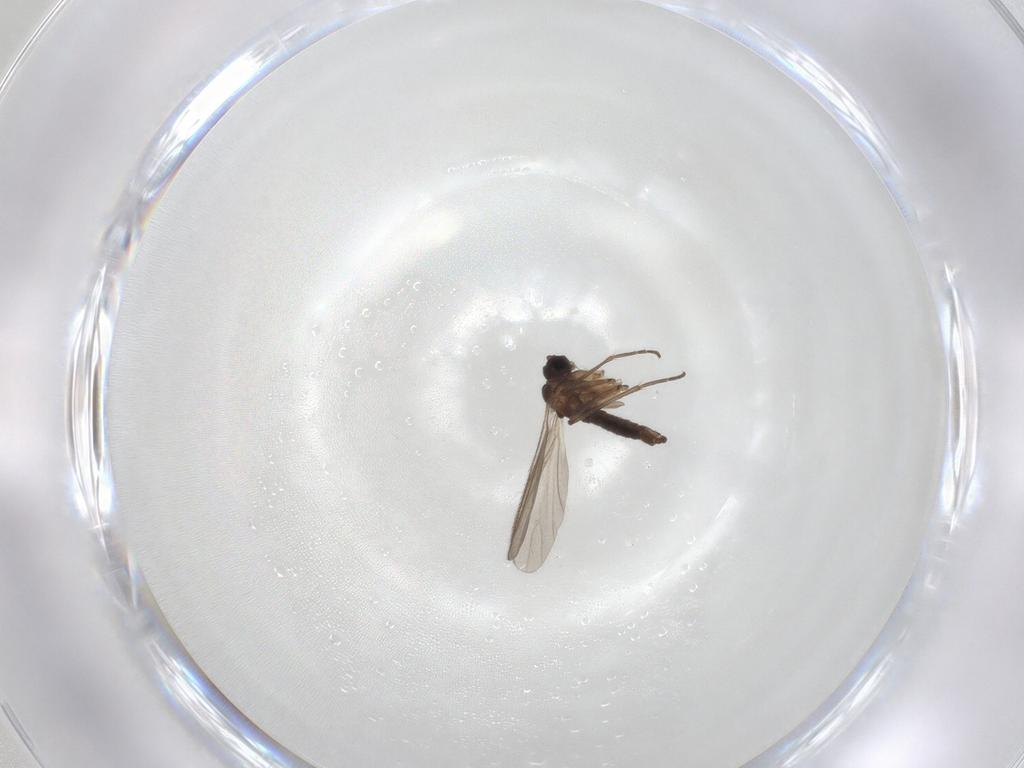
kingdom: Animalia
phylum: Arthropoda
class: Insecta
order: Diptera
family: Sciaridae
